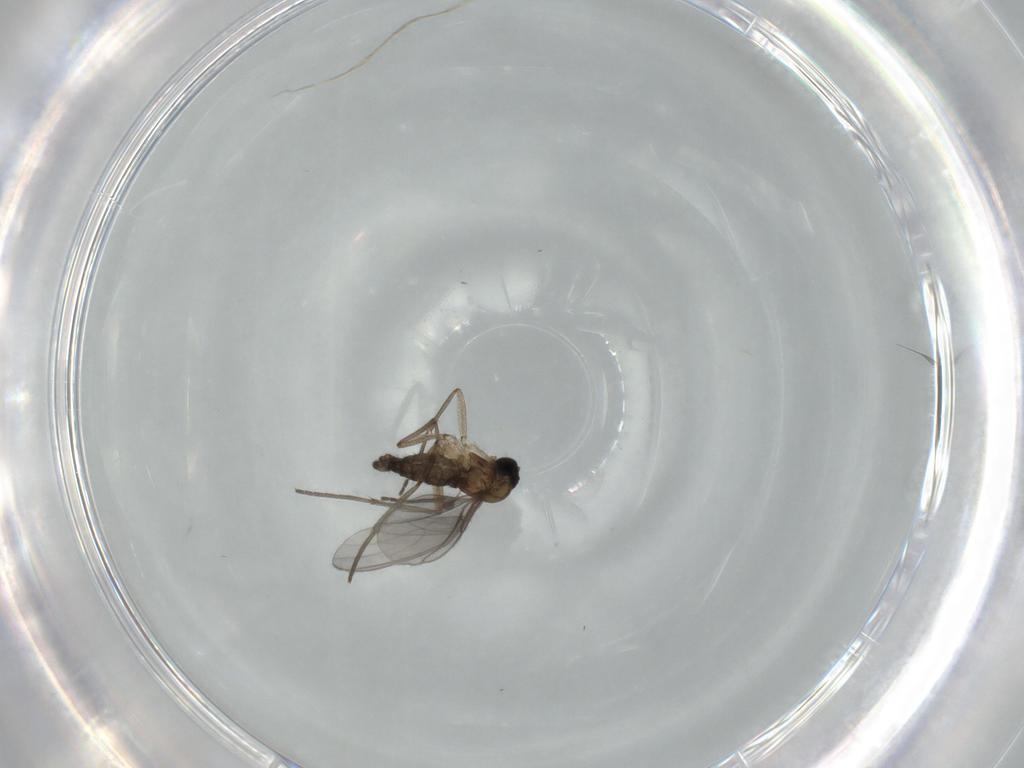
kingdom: Animalia
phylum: Arthropoda
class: Insecta
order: Diptera
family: Sciaridae
